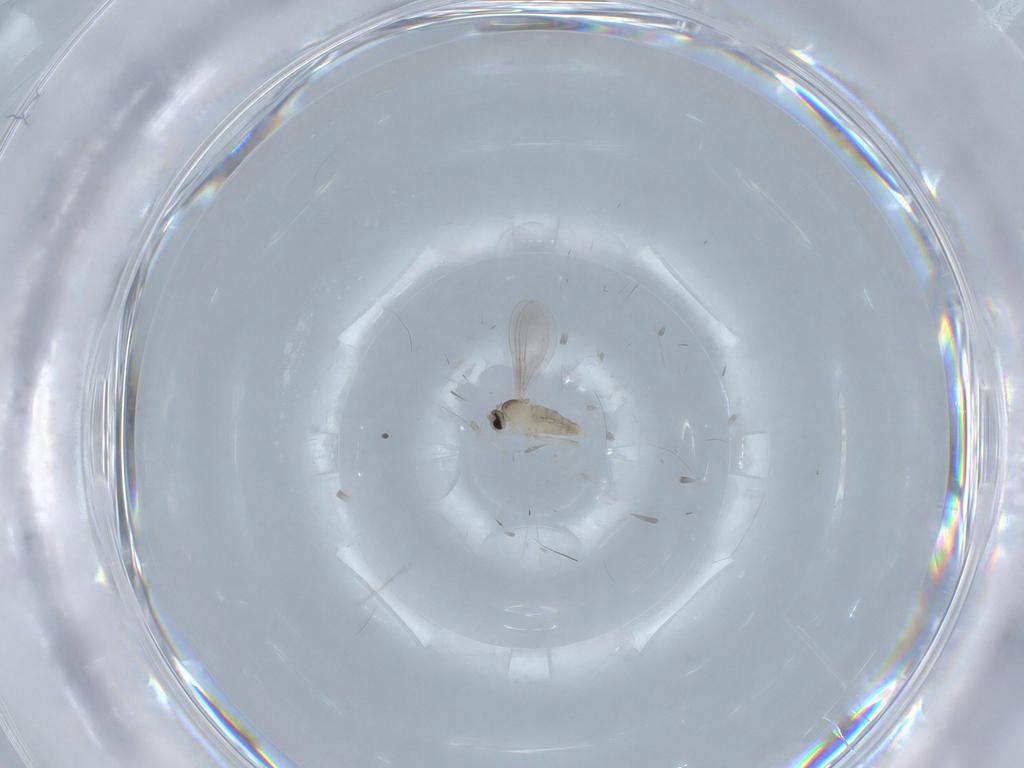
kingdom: Animalia
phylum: Arthropoda
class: Insecta
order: Diptera
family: Cecidomyiidae
